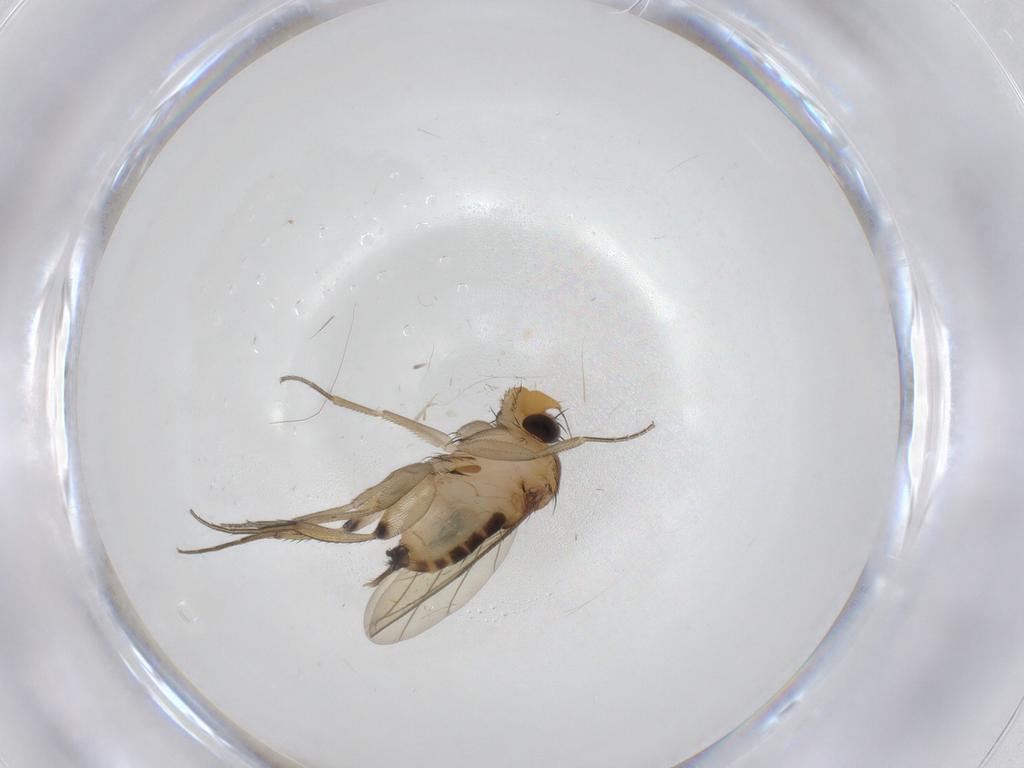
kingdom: Animalia
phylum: Arthropoda
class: Insecta
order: Diptera
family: Phoridae
